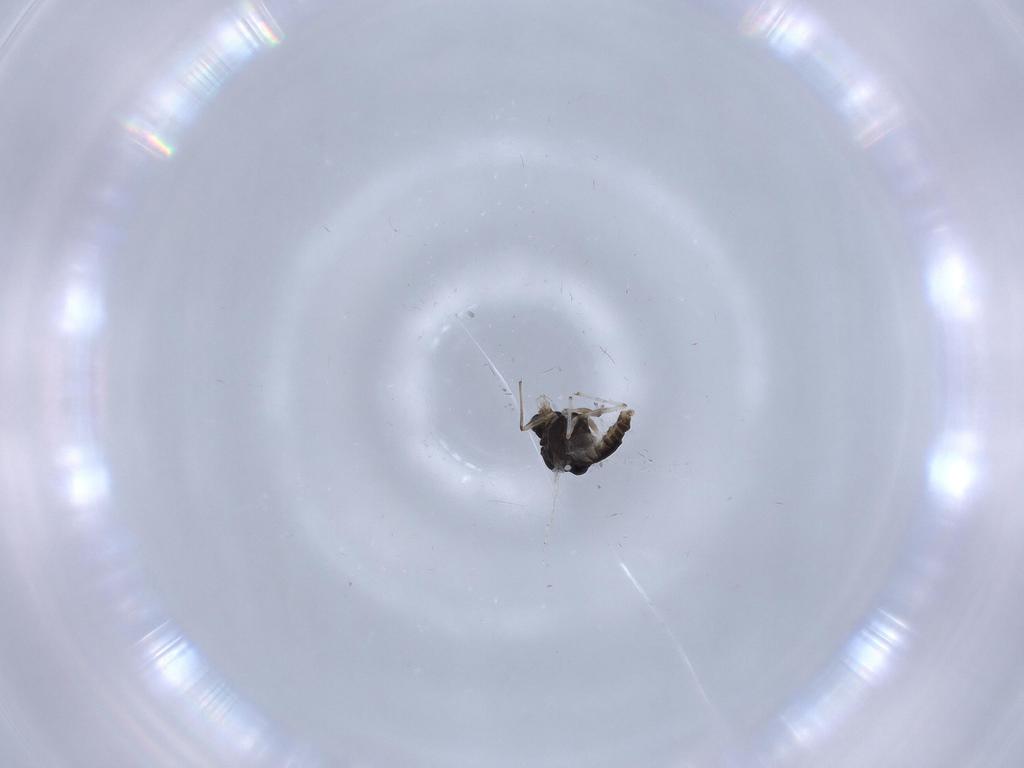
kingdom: Animalia
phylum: Arthropoda
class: Insecta
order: Diptera
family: Chironomidae
